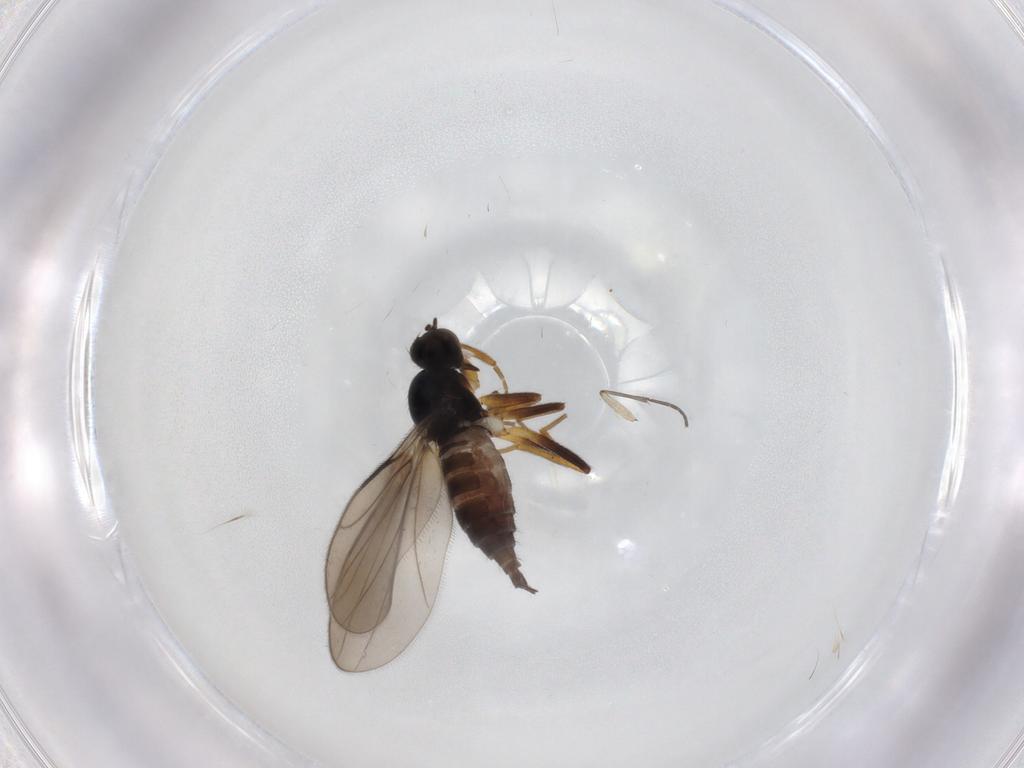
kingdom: Animalia
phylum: Arthropoda
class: Insecta
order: Diptera
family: Hybotidae
